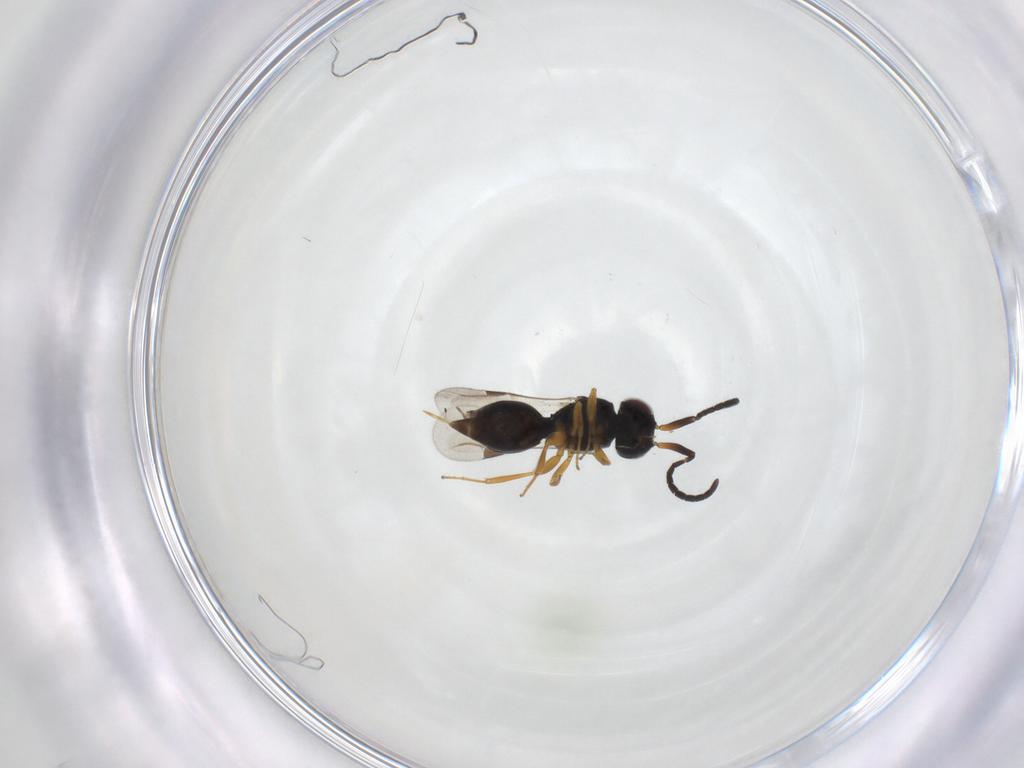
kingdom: Animalia
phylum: Arthropoda
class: Insecta
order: Hymenoptera
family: Megaspilidae
